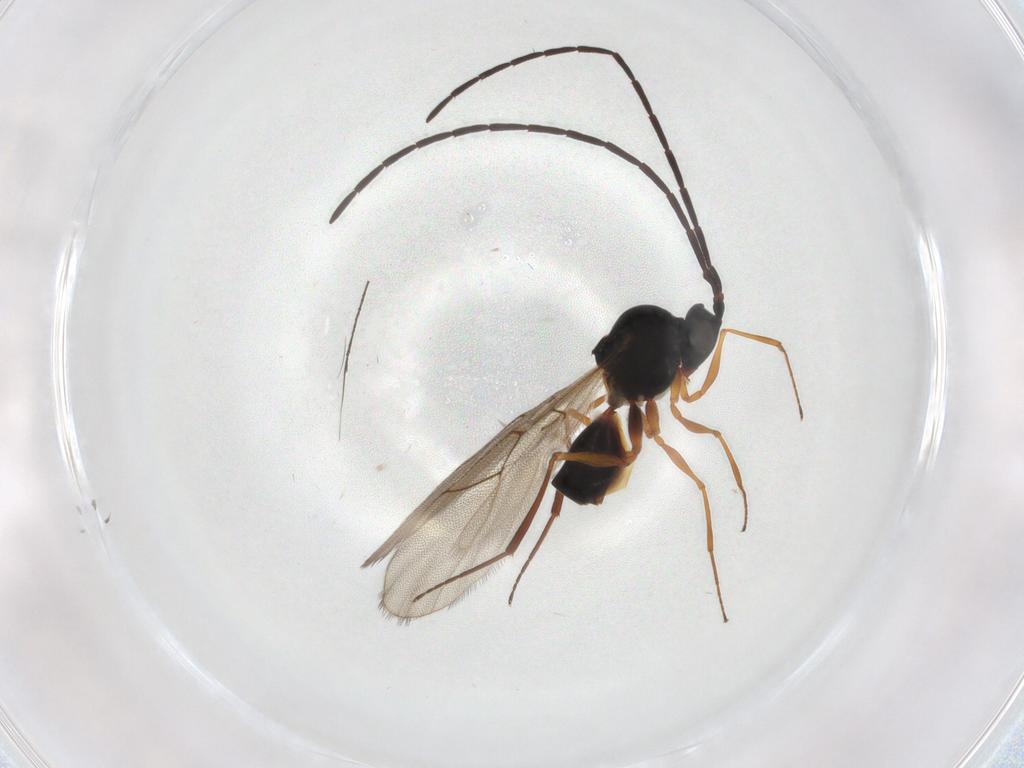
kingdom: Animalia
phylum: Arthropoda
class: Insecta
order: Hymenoptera
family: Figitidae
